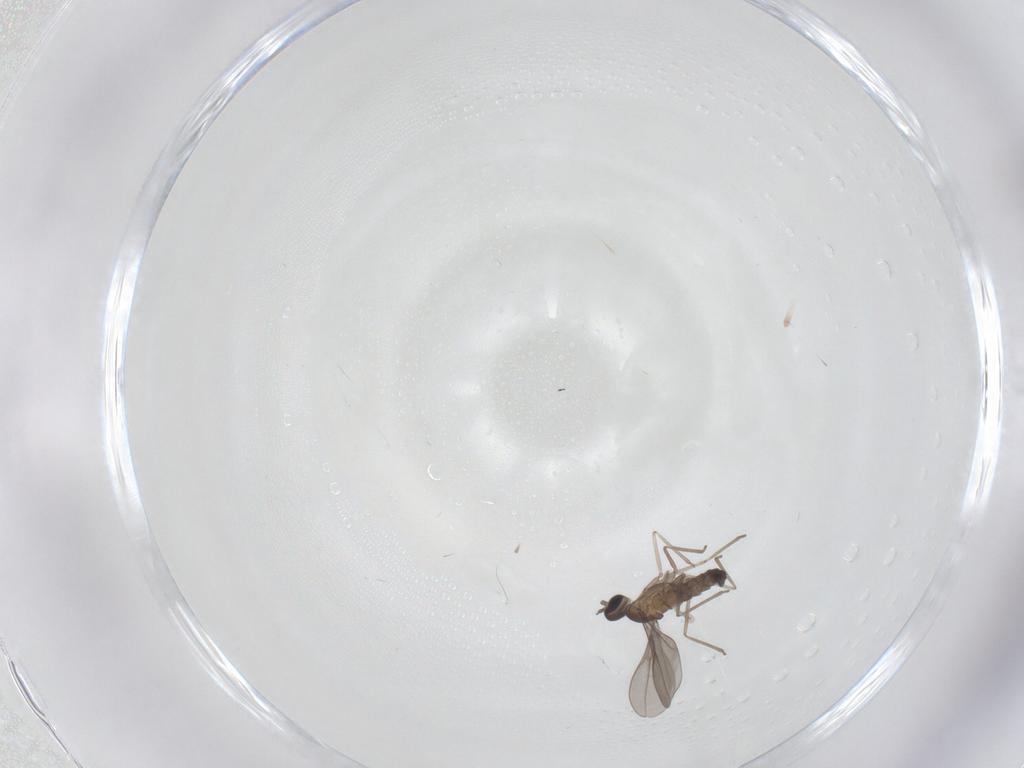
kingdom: Animalia
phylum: Arthropoda
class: Insecta
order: Diptera
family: Cecidomyiidae
